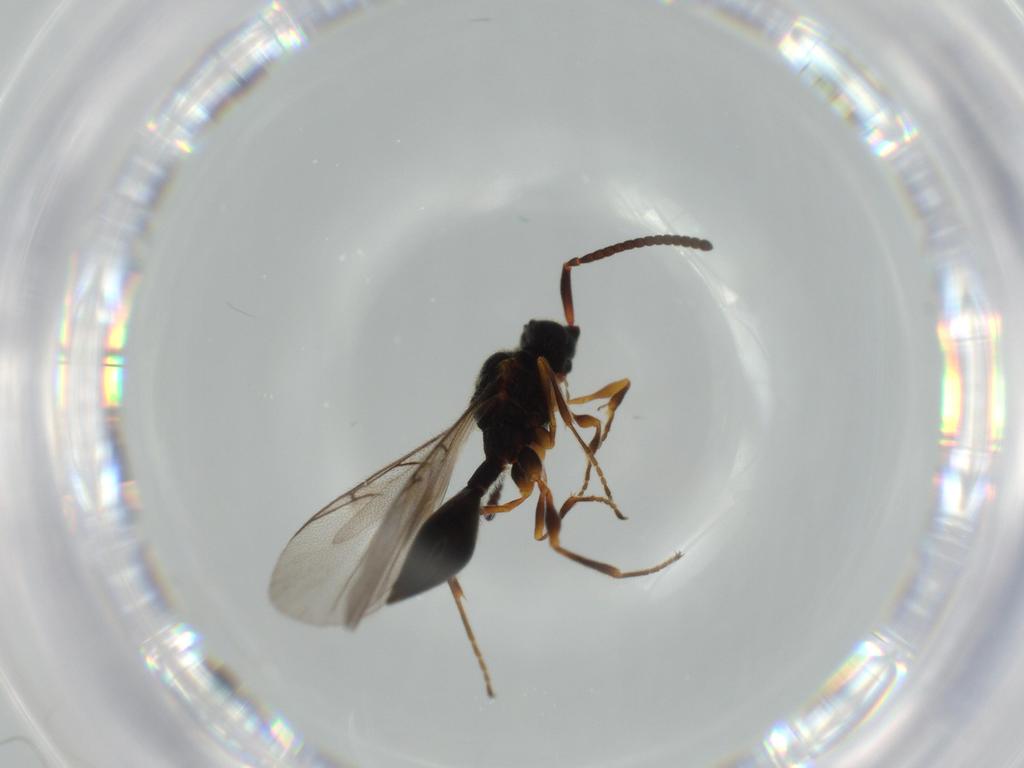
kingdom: Animalia
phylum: Arthropoda
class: Insecta
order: Hymenoptera
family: Diapriidae
